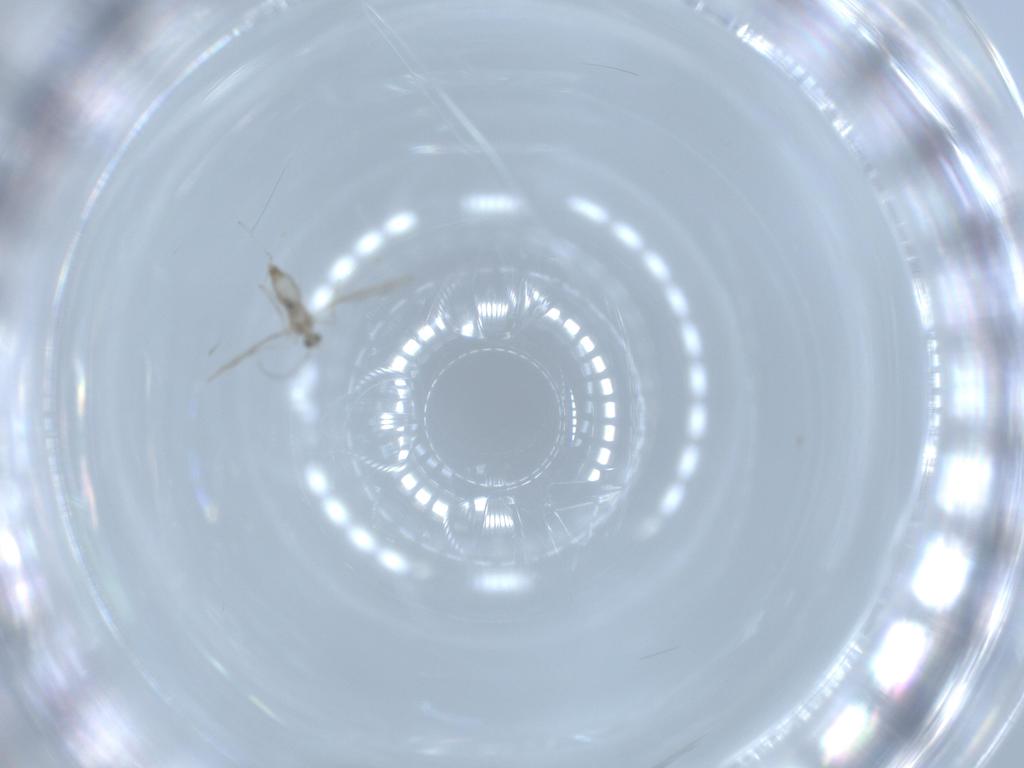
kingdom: Animalia
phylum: Arthropoda
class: Insecta
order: Diptera
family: Cecidomyiidae
